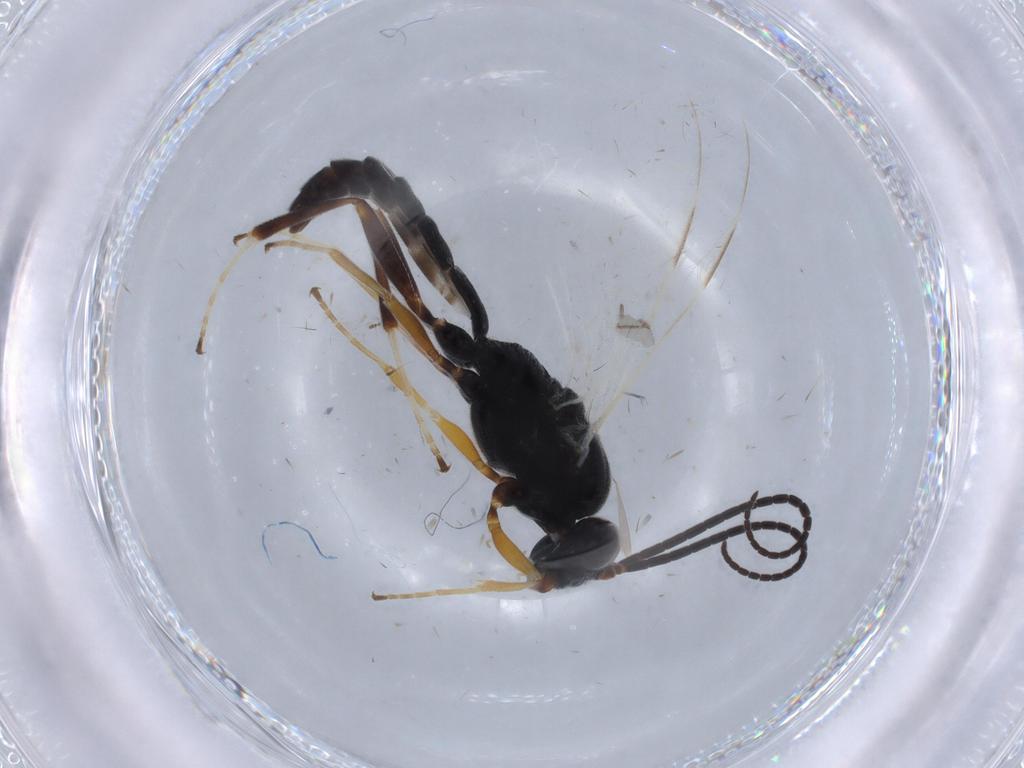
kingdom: Animalia
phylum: Arthropoda
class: Insecta
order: Hymenoptera
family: Ichneumonidae
